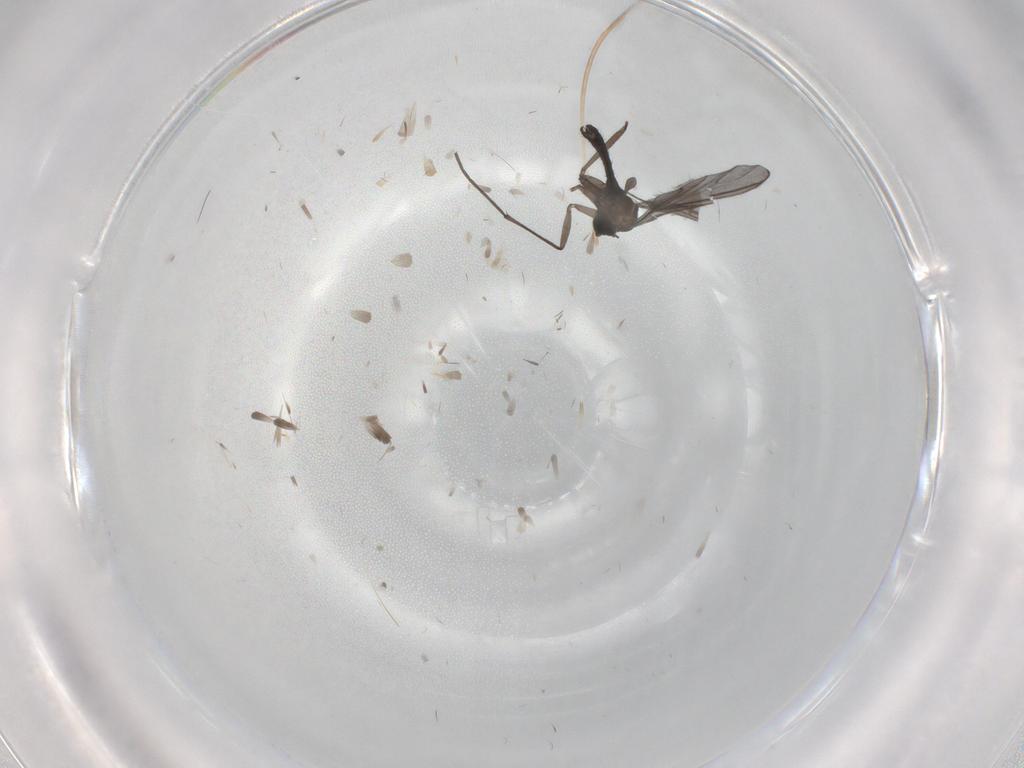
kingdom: Animalia
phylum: Arthropoda
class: Insecta
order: Diptera
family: Sciaridae
